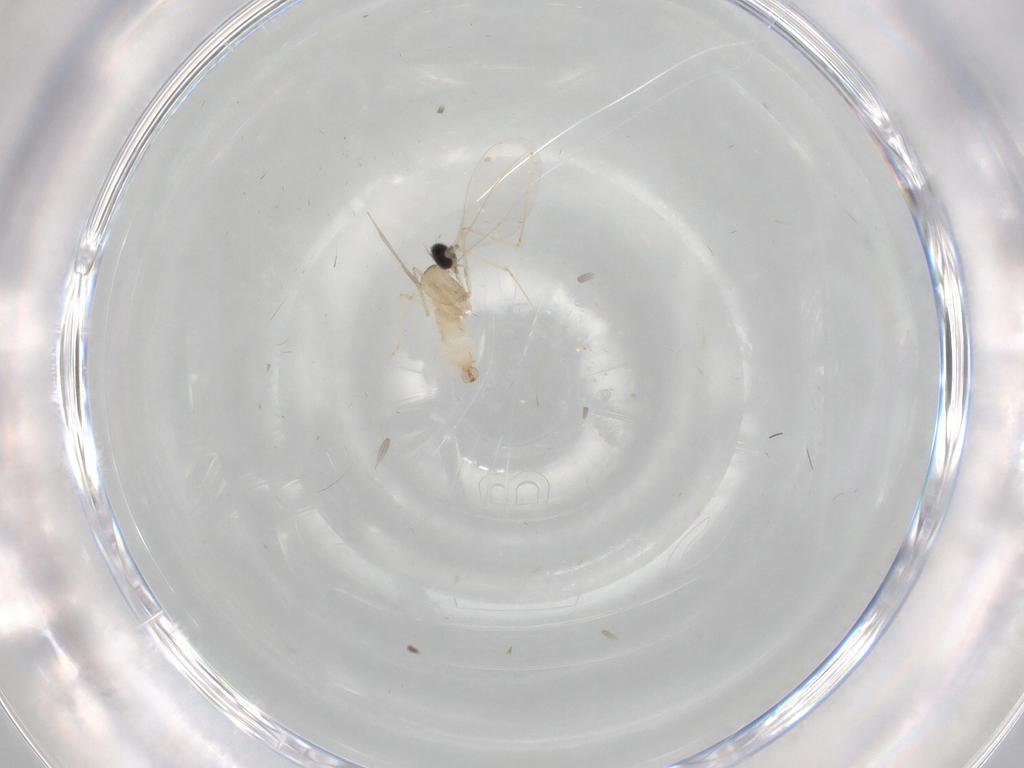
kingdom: Animalia
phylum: Arthropoda
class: Insecta
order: Diptera
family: Cecidomyiidae
